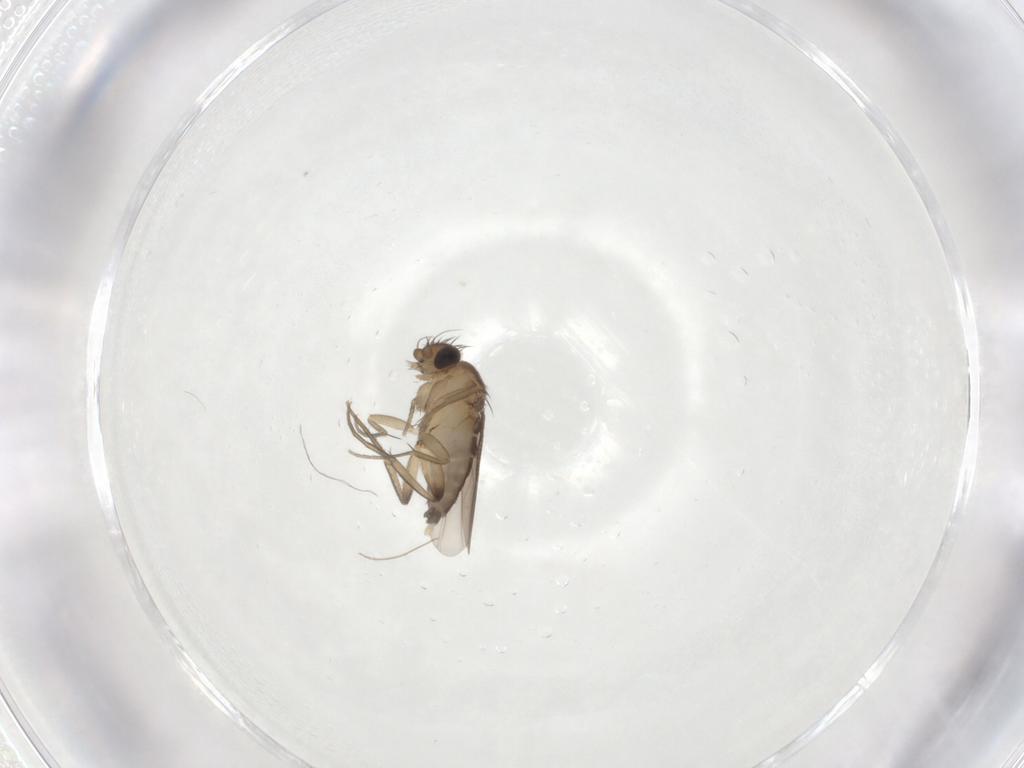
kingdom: Animalia
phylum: Arthropoda
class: Insecta
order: Diptera
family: Chironomidae
